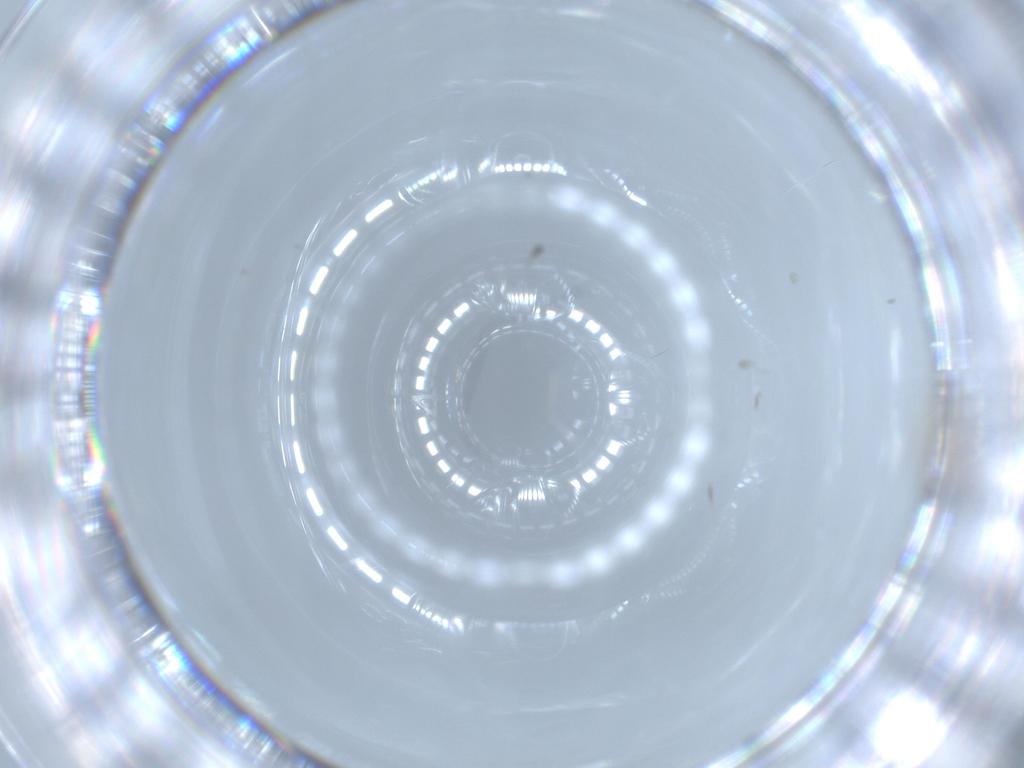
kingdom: Animalia
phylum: Arthropoda
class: Insecta
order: Diptera
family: Cecidomyiidae
